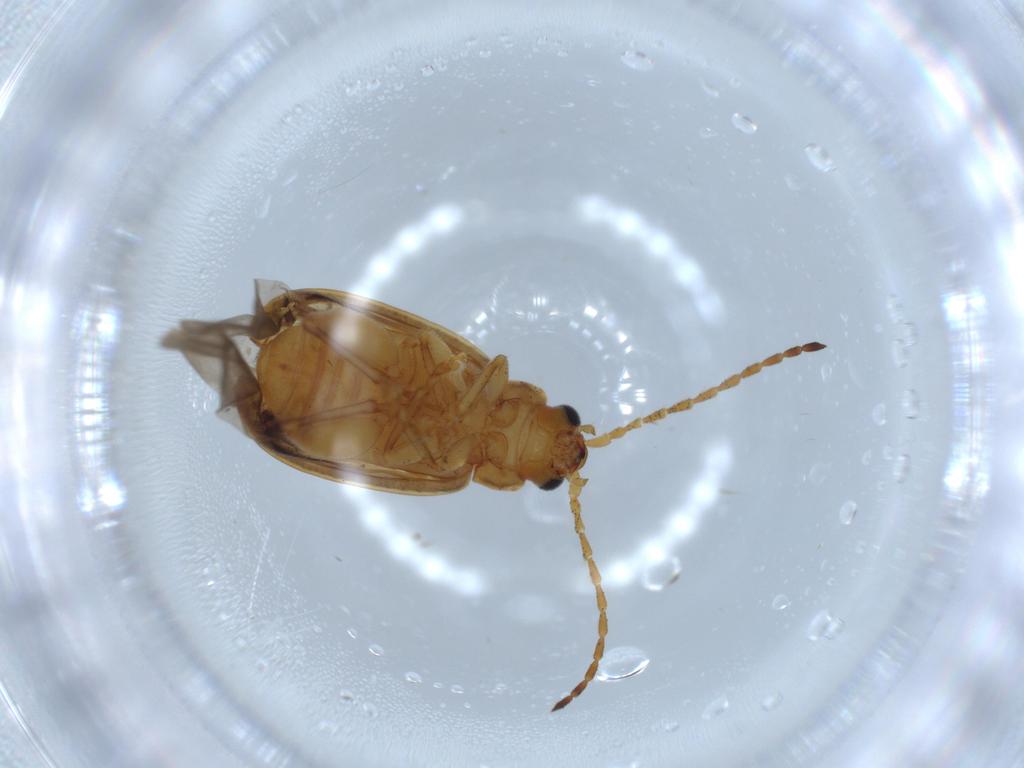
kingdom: Animalia
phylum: Arthropoda
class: Insecta
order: Coleoptera
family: Chrysomelidae
